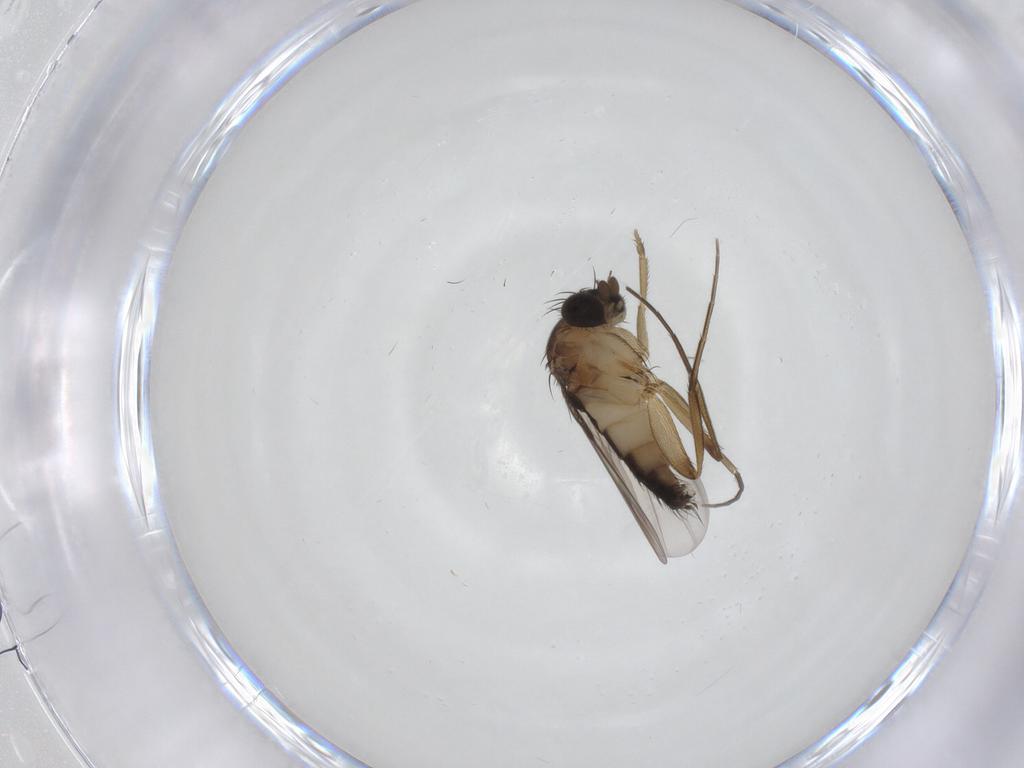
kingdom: Animalia
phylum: Arthropoda
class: Insecta
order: Diptera
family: Phoridae
